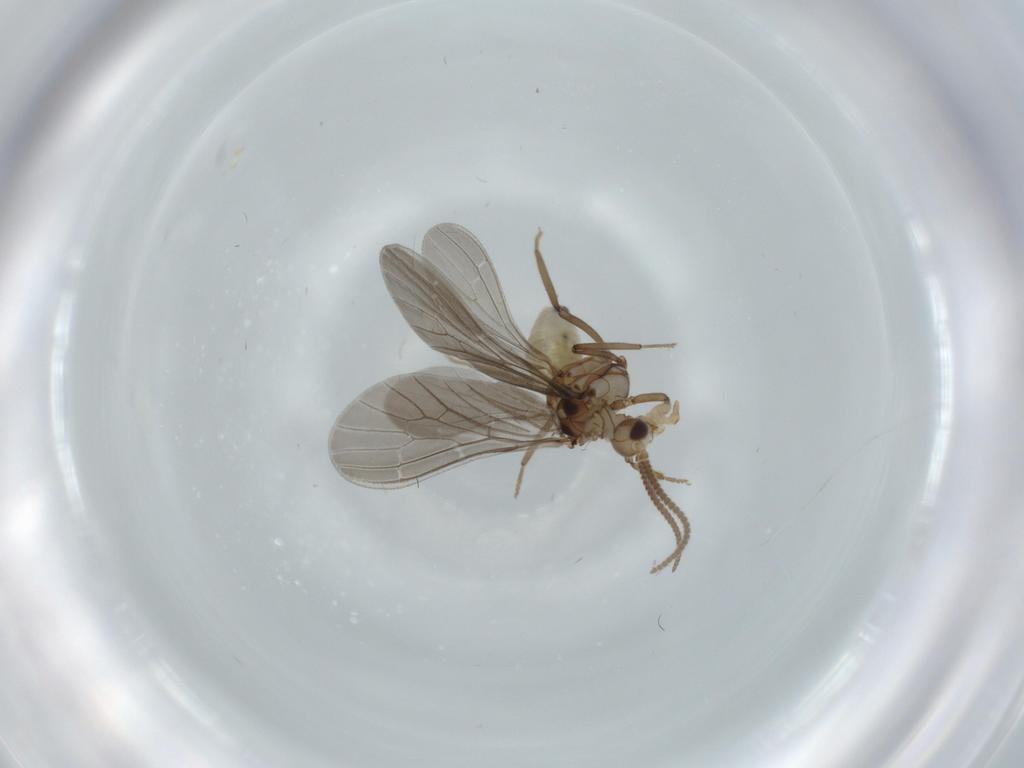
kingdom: Animalia
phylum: Arthropoda
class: Insecta
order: Neuroptera
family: Coniopterygidae
